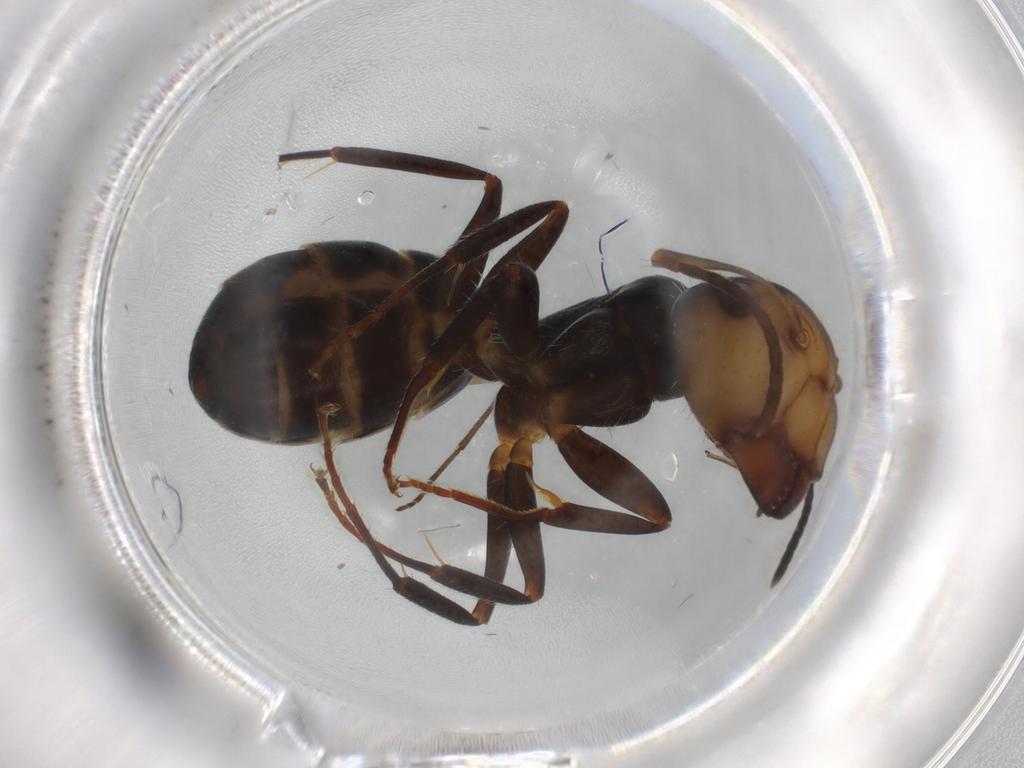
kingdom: Animalia
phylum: Arthropoda
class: Insecta
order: Hymenoptera
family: Formicidae
